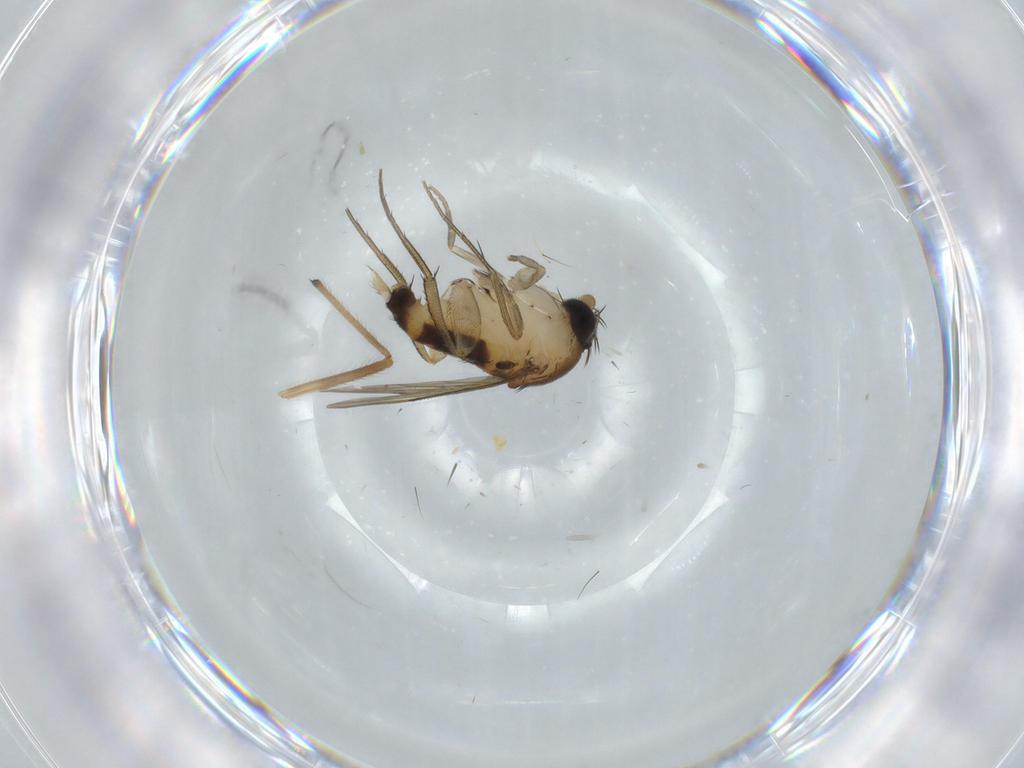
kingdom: Animalia
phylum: Arthropoda
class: Insecta
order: Diptera
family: Chironomidae
